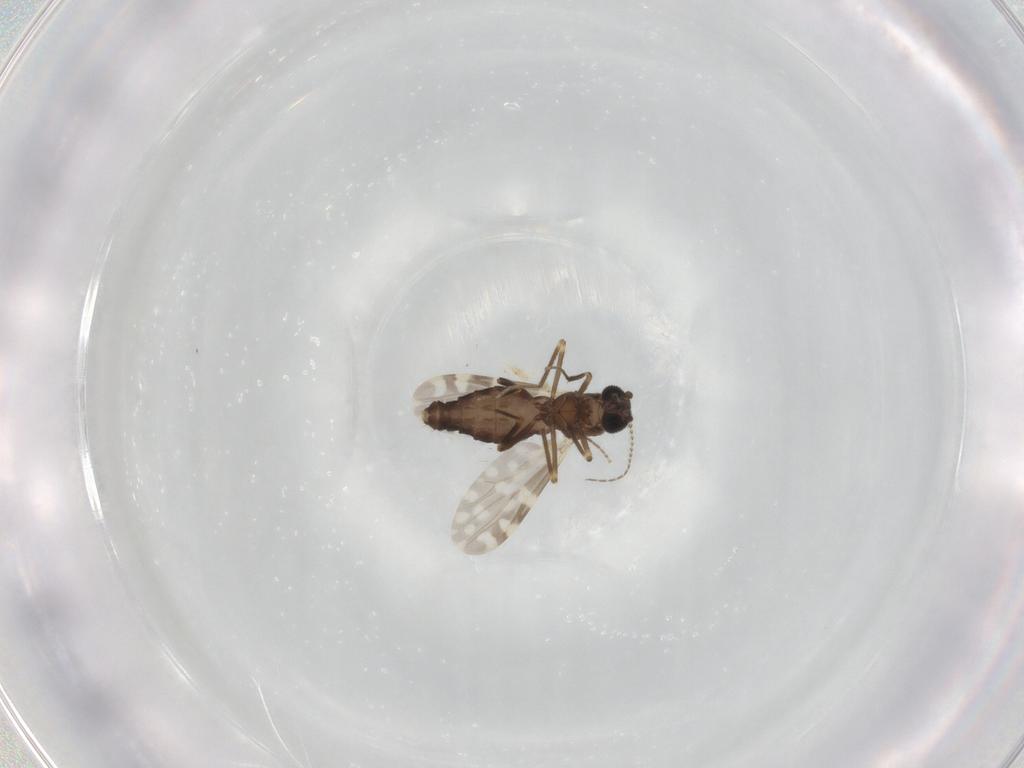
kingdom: Animalia
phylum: Arthropoda
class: Insecta
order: Diptera
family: Ceratopogonidae
